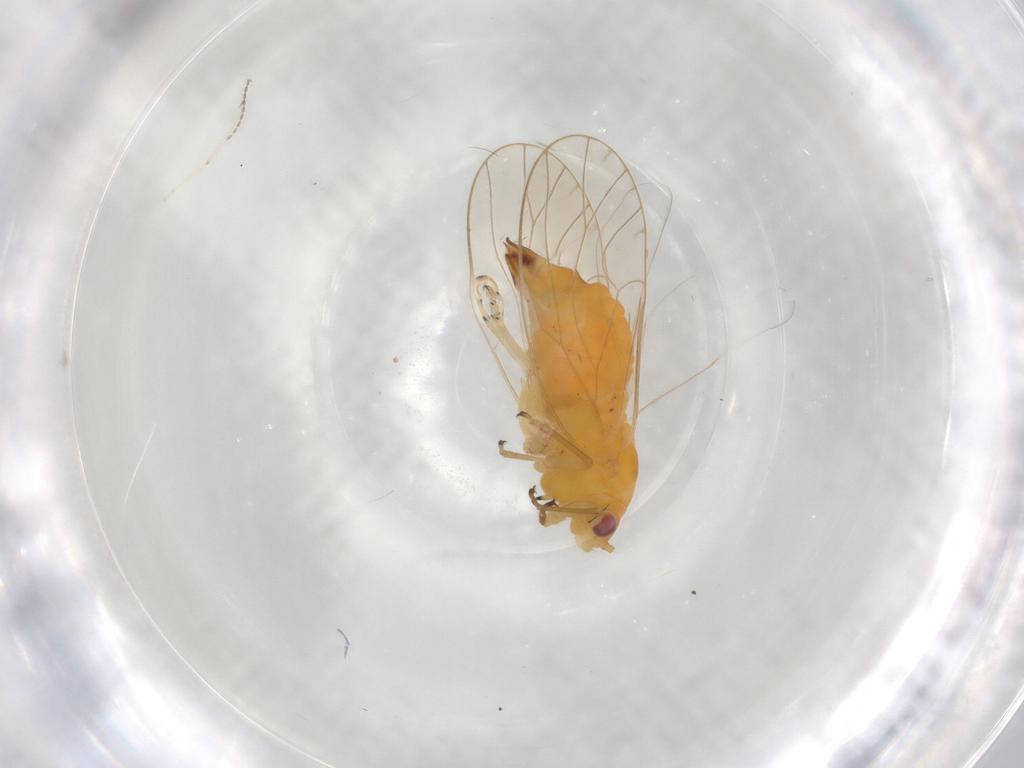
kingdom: Animalia
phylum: Arthropoda
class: Insecta
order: Hemiptera
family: Psyllidae
